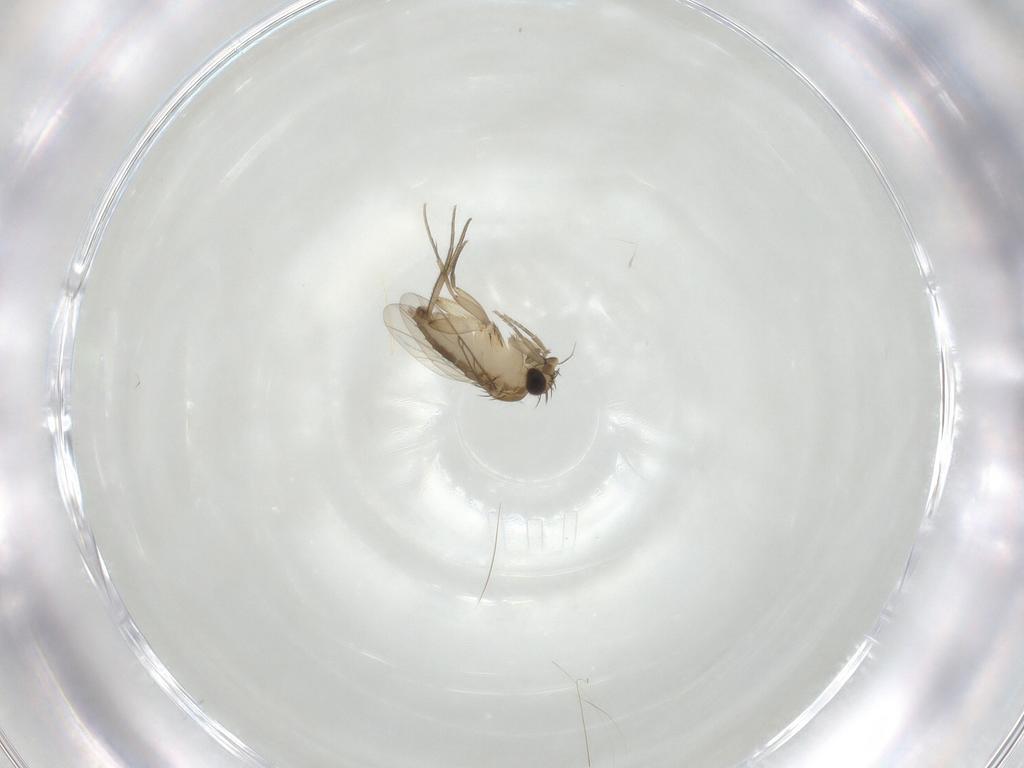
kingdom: Animalia
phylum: Arthropoda
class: Insecta
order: Diptera
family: Phoridae
